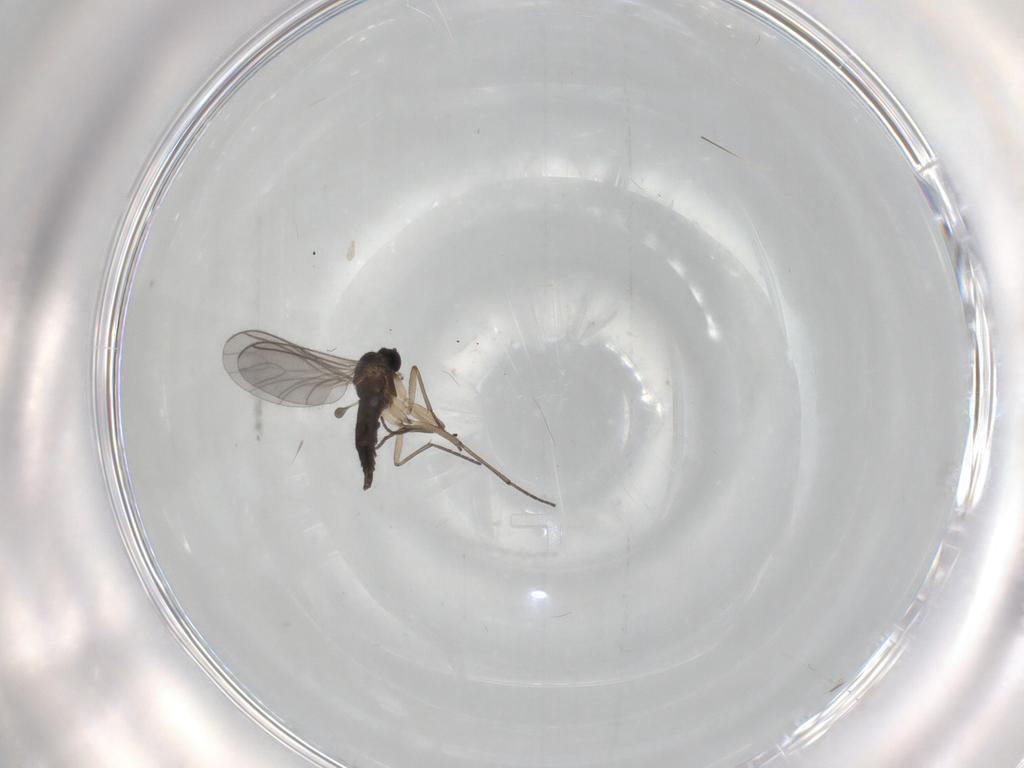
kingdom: Animalia
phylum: Arthropoda
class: Insecta
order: Diptera
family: Sciaridae
